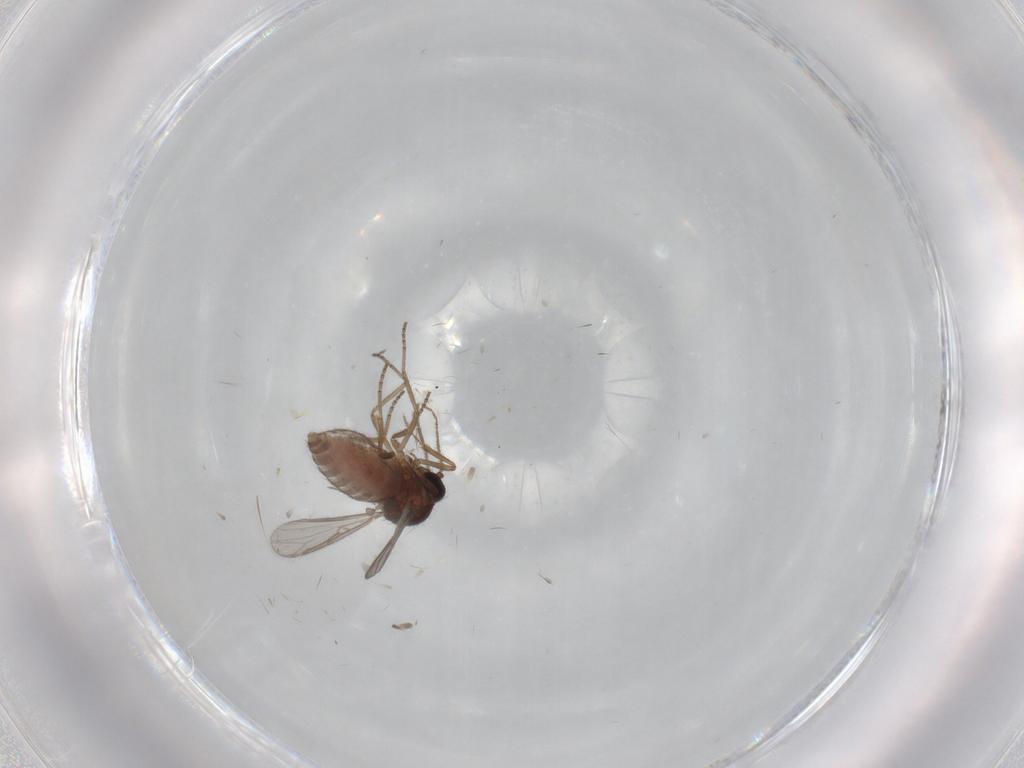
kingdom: Animalia
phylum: Arthropoda
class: Insecta
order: Diptera
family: Ceratopogonidae
